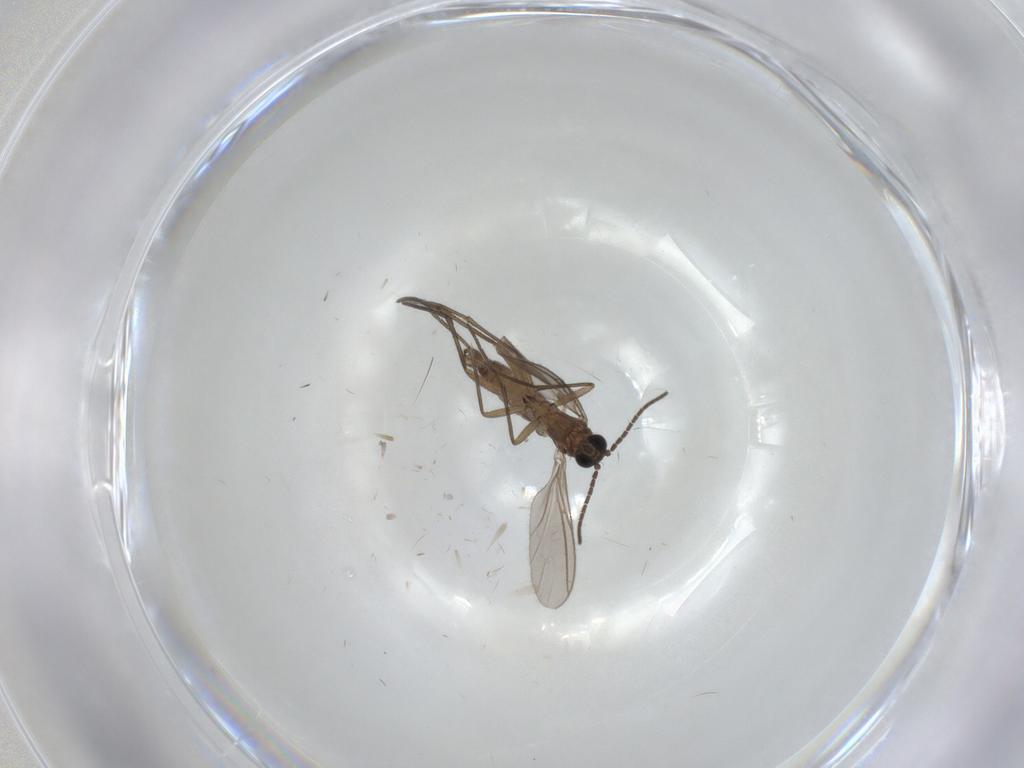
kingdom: Animalia
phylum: Arthropoda
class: Insecta
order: Diptera
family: Sciaridae
